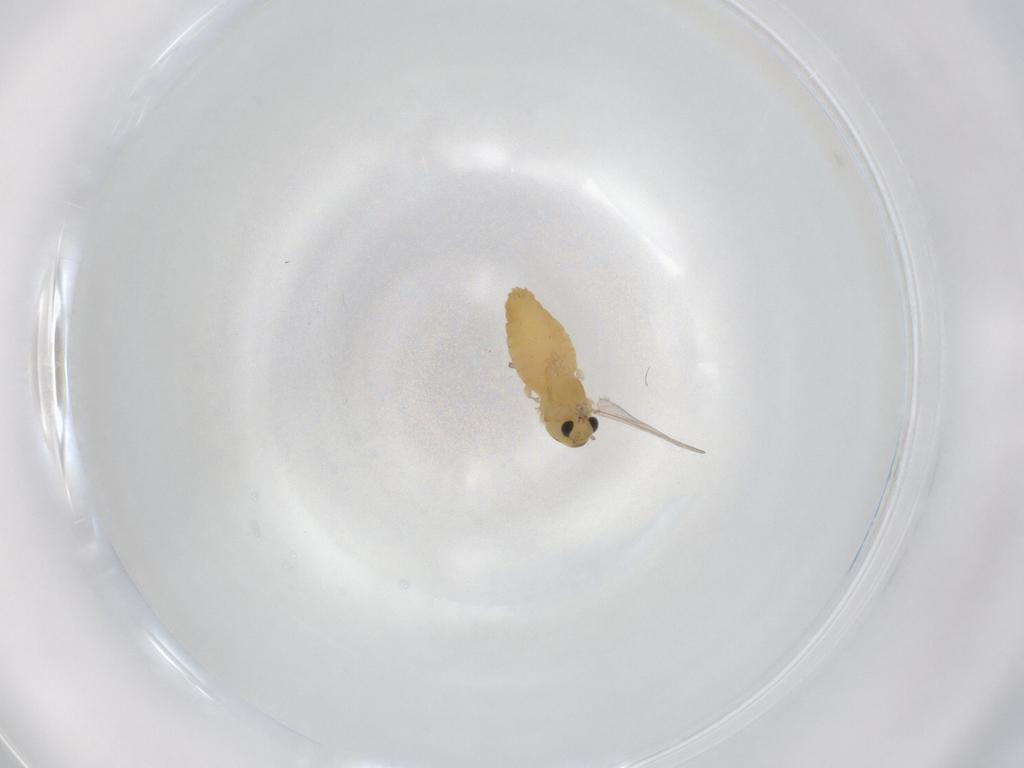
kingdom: Animalia
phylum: Arthropoda
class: Insecta
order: Diptera
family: Chironomidae
